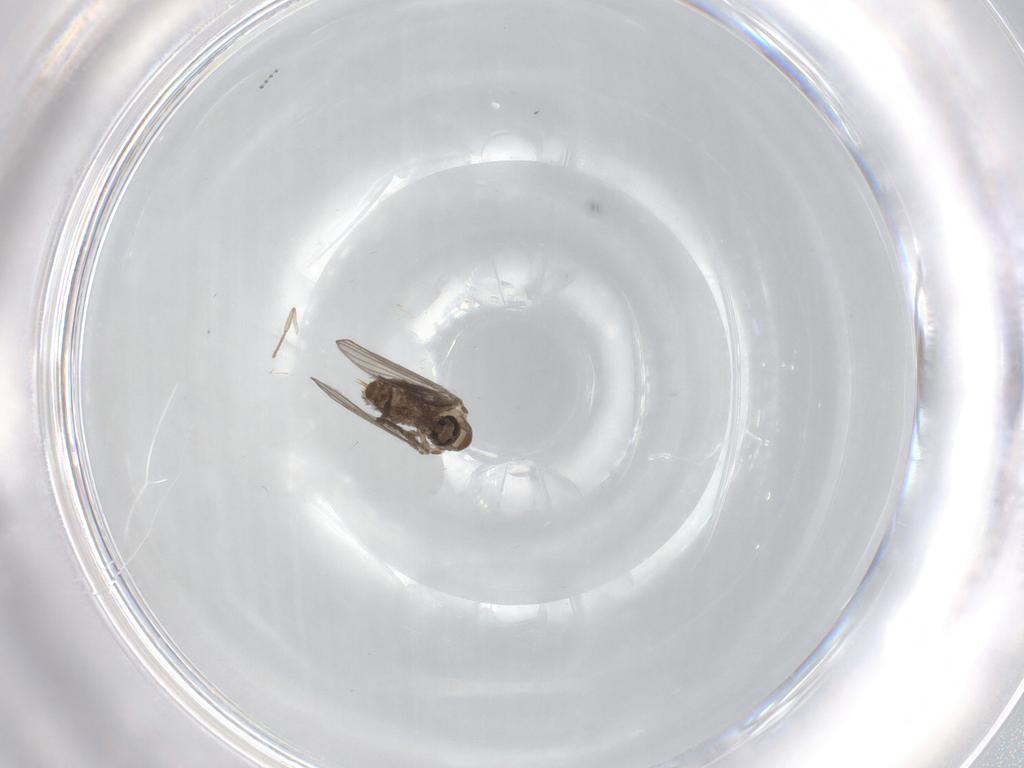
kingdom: Animalia
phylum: Arthropoda
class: Insecta
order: Diptera
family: Psychodidae
